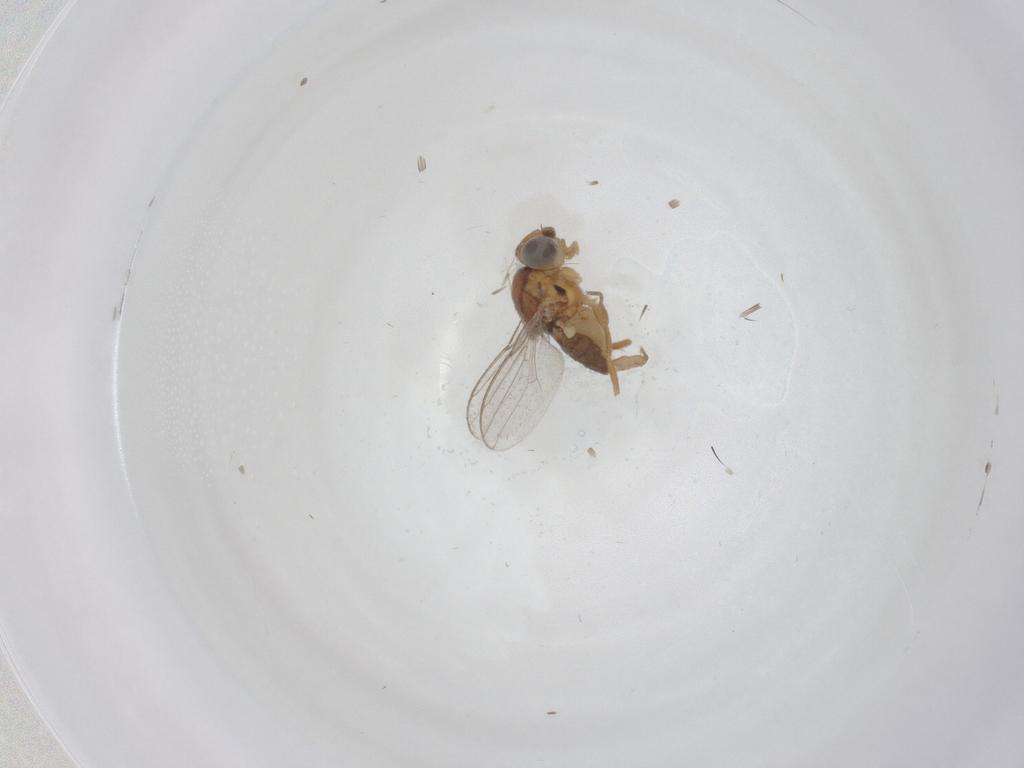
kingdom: Animalia
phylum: Arthropoda
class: Insecta
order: Diptera
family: Chloropidae
